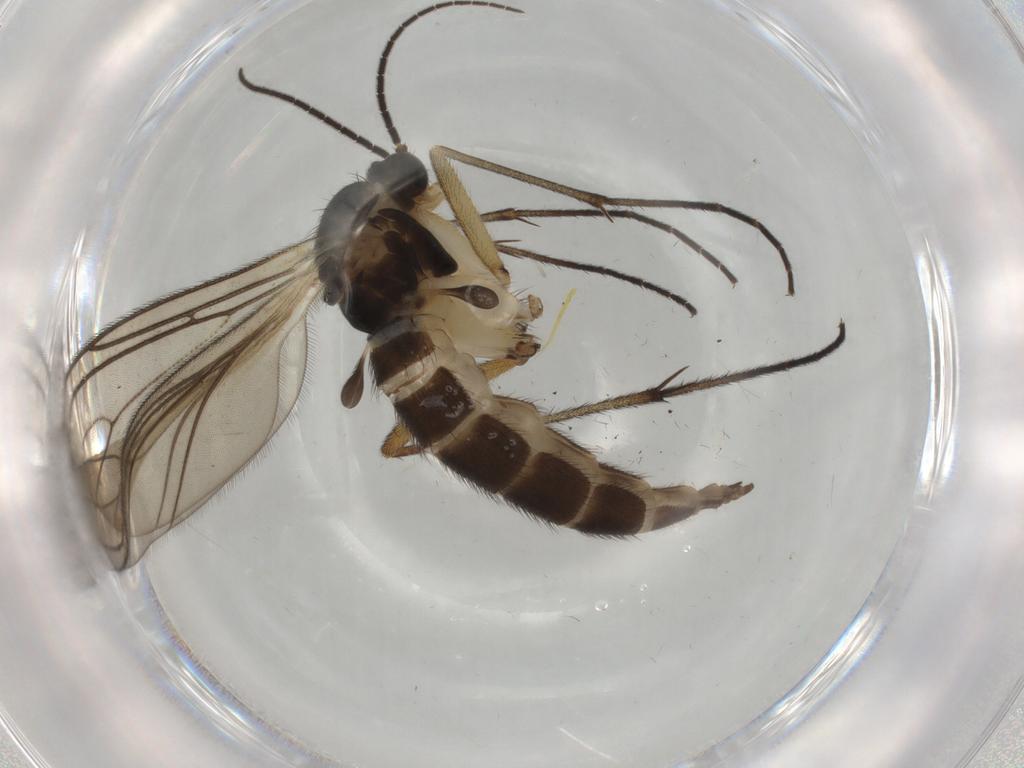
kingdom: Animalia
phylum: Arthropoda
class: Insecta
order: Diptera
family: Sciaridae
